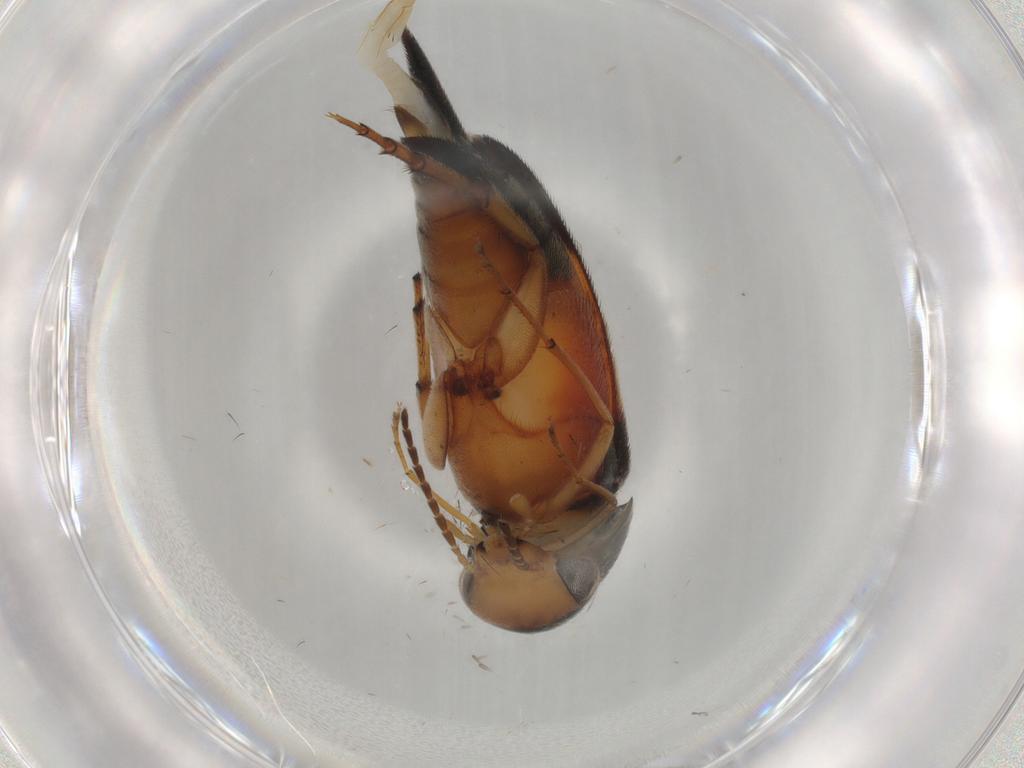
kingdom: Animalia
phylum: Arthropoda
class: Insecta
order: Coleoptera
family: Mordellidae
